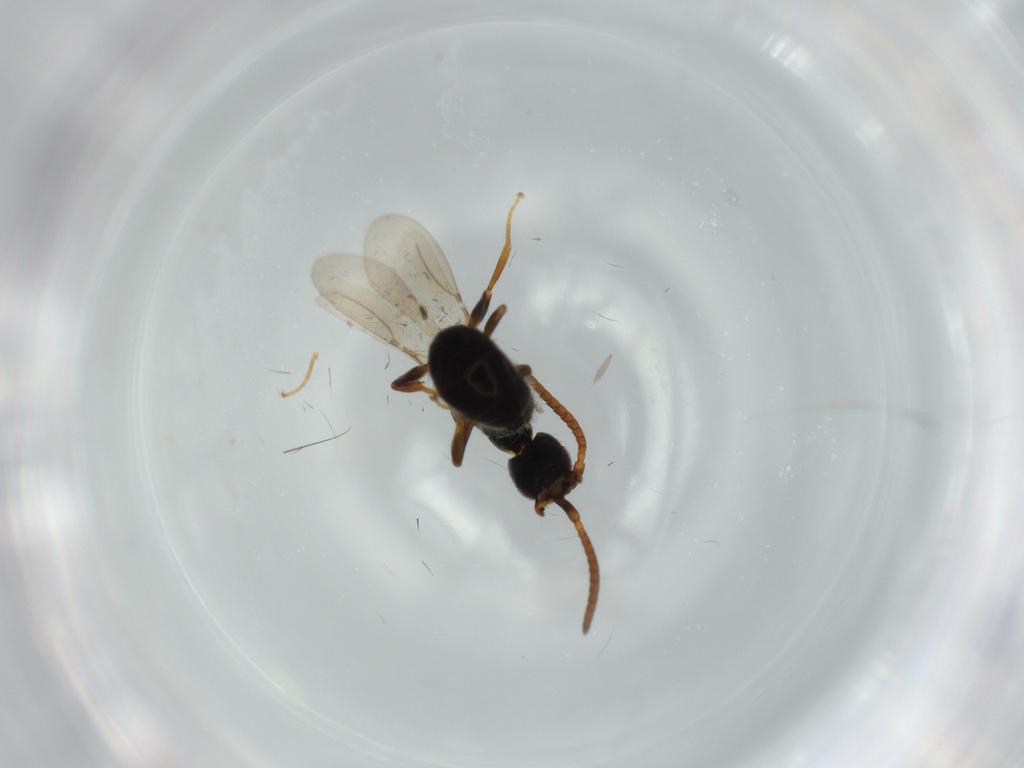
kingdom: Animalia
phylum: Arthropoda
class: Insecta
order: Hymenoptera
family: Bethylidae
